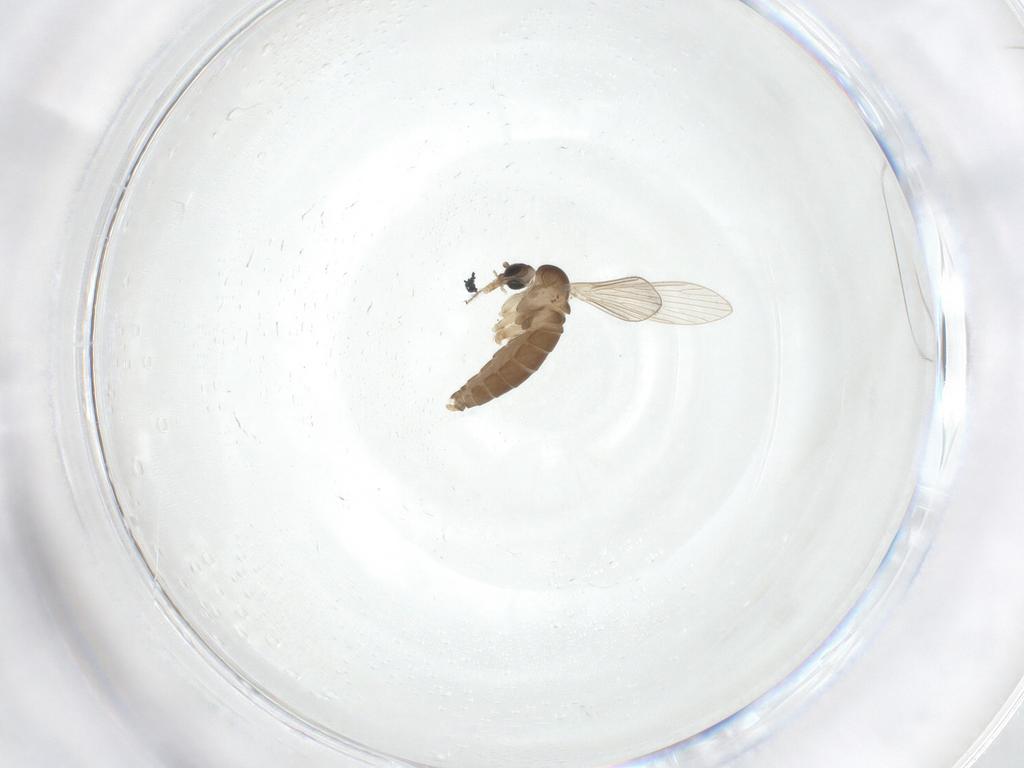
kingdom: Animalia
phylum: Arthropoda
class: Insecta
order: Diptera
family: Psychodidae
